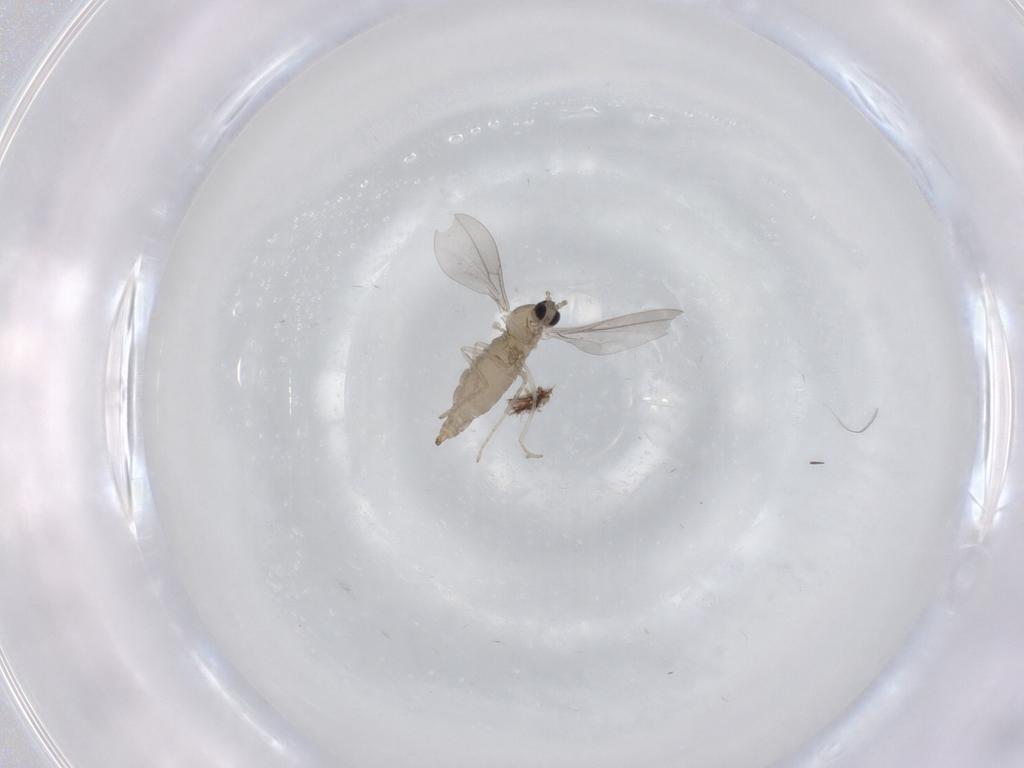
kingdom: Animalia
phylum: Arthropoda
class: Insecta
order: Diptera
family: Cecidomyiidae
